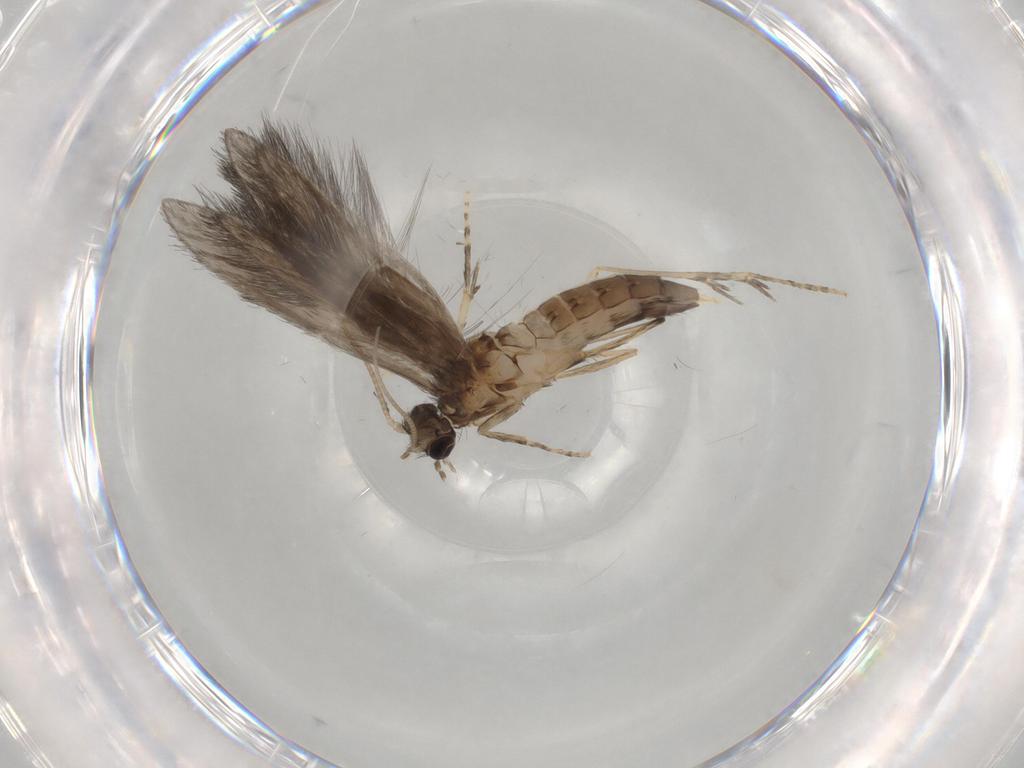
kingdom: Animalia
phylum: Arthropoda
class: Insecta
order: Trichoptera
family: Hydroptilidae
